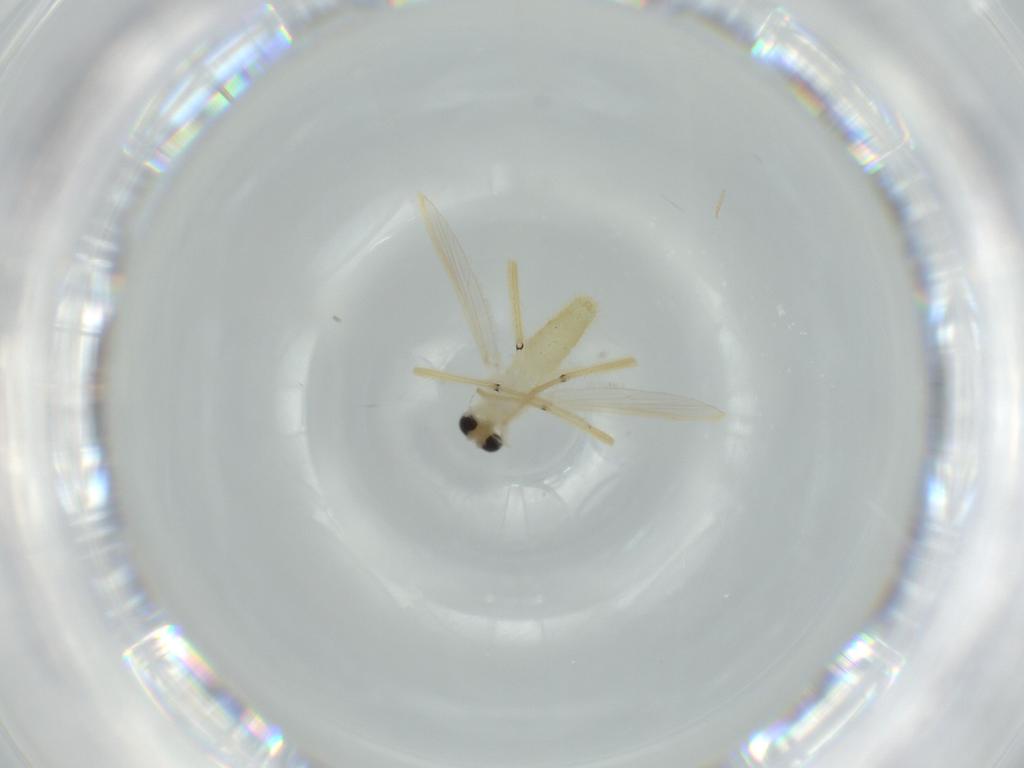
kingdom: Animalia
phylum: Arthropoda
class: Insecta
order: Diptera
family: Chironomidae
